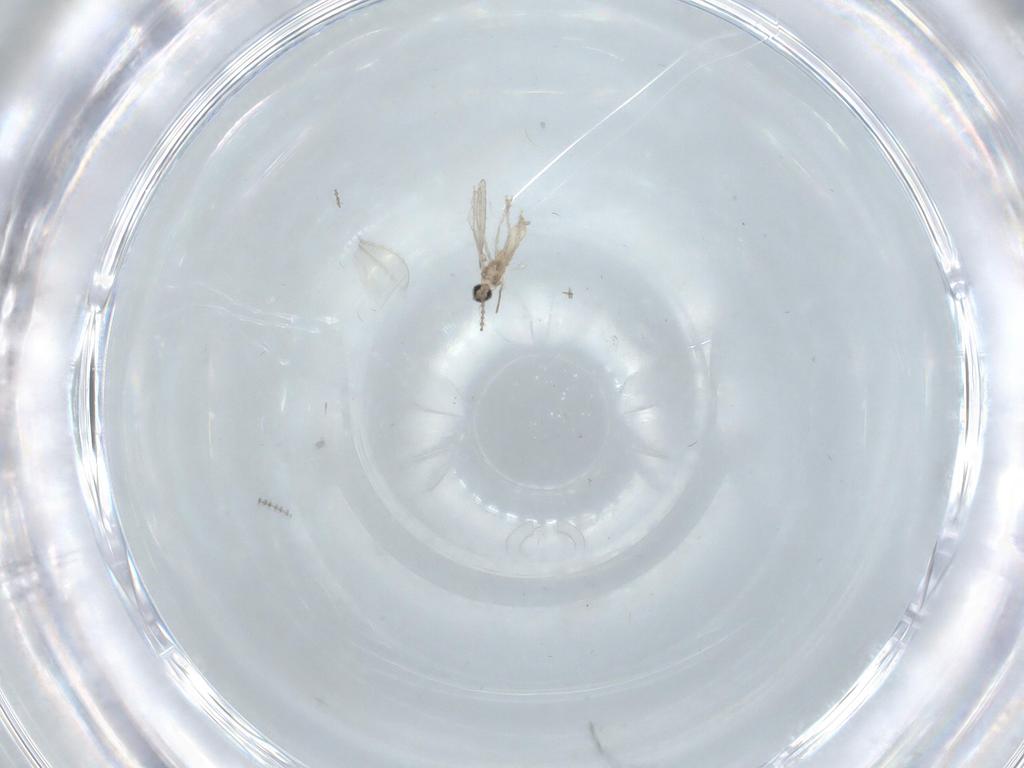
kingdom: Animalia
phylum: Arthropoda
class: Insecta
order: Diptera
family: Cecidomyiidae
